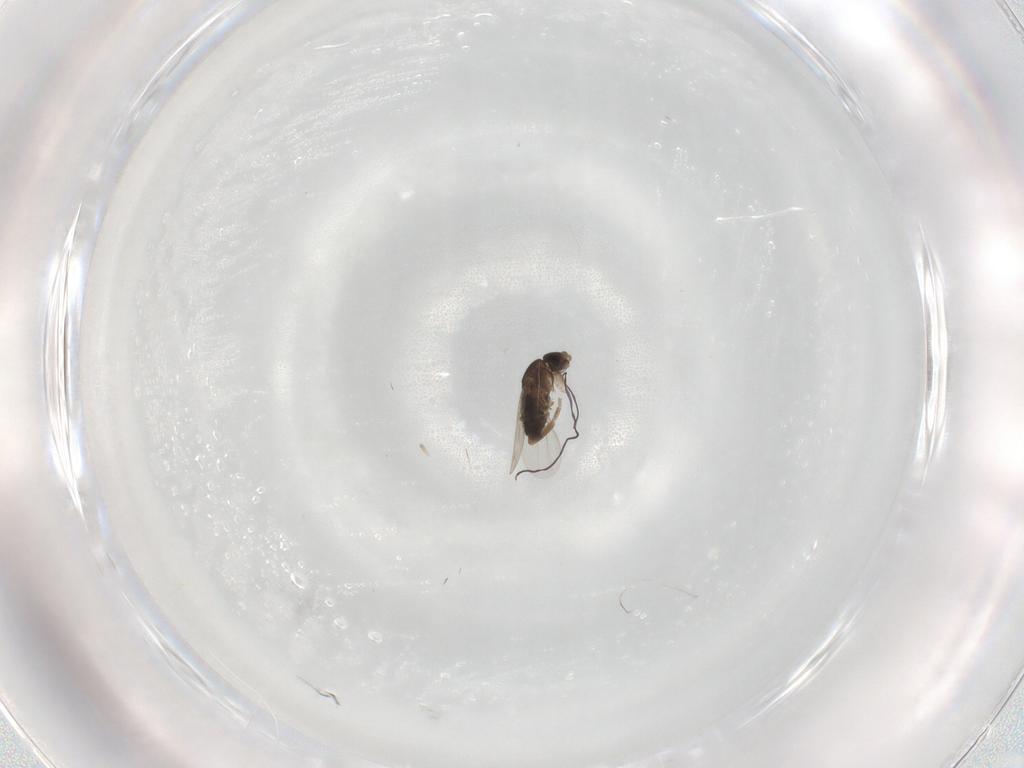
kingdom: Animalia
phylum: Arthropoda
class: Insecta
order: Diptera
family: Phoridae
